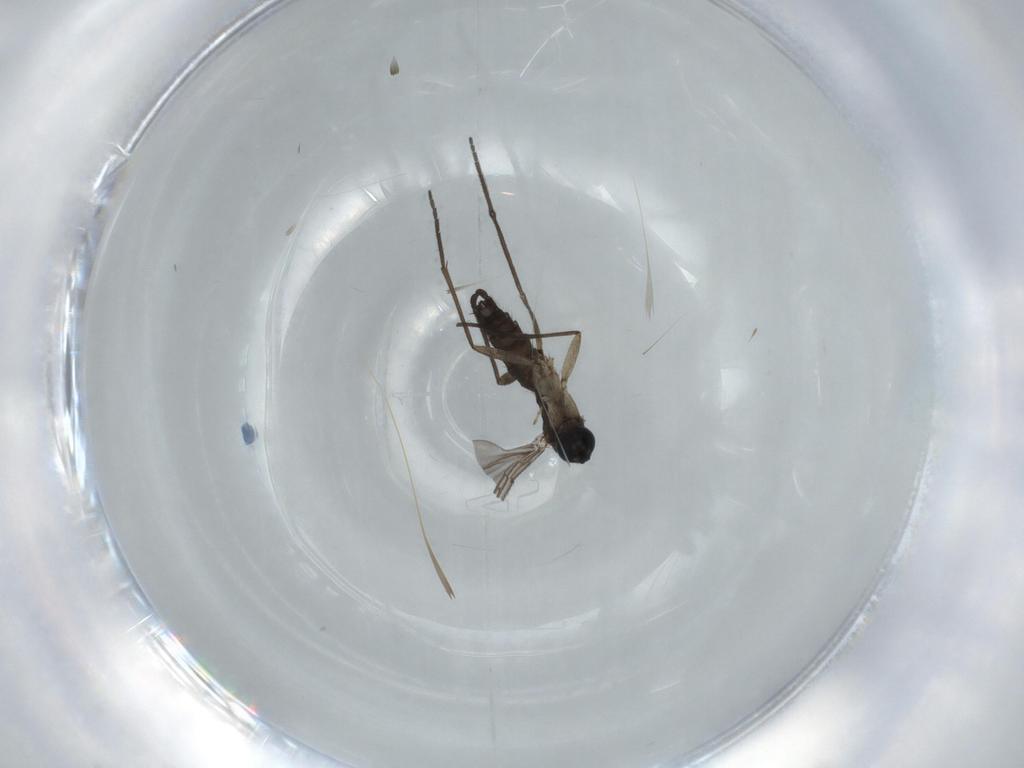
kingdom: Animalia
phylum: Arthropoda
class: Insecta
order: Diptera
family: Sciaridae
